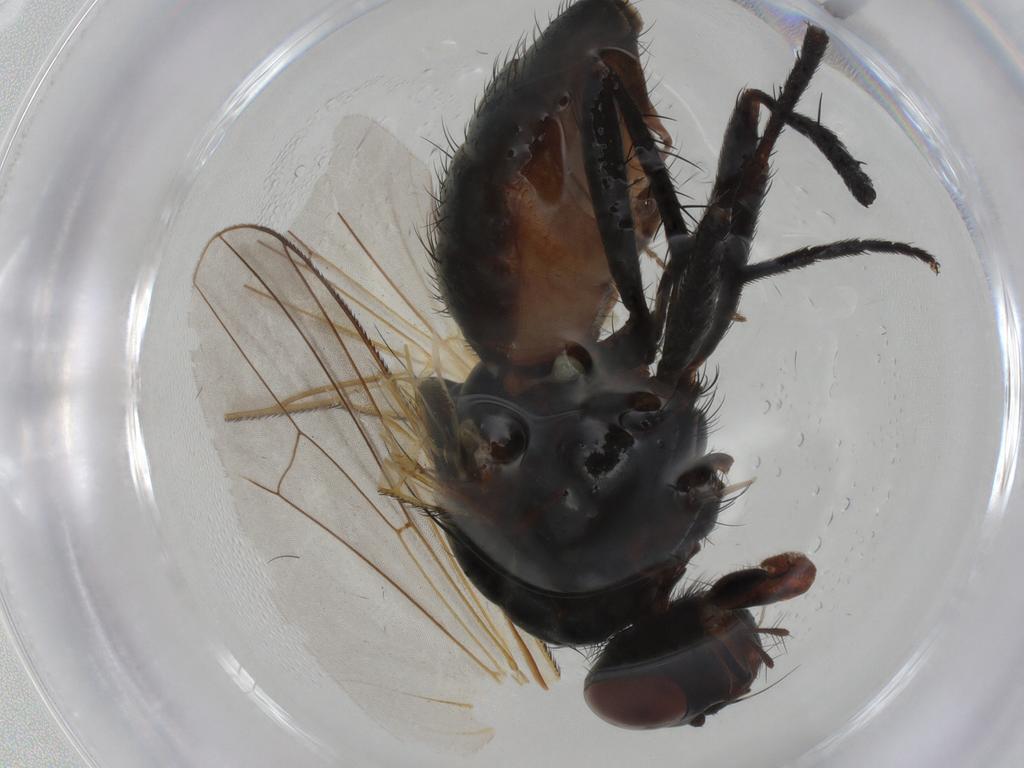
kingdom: Animalia
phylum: Arthropoda
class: Insecta
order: Diptera
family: Anthomyiidae
